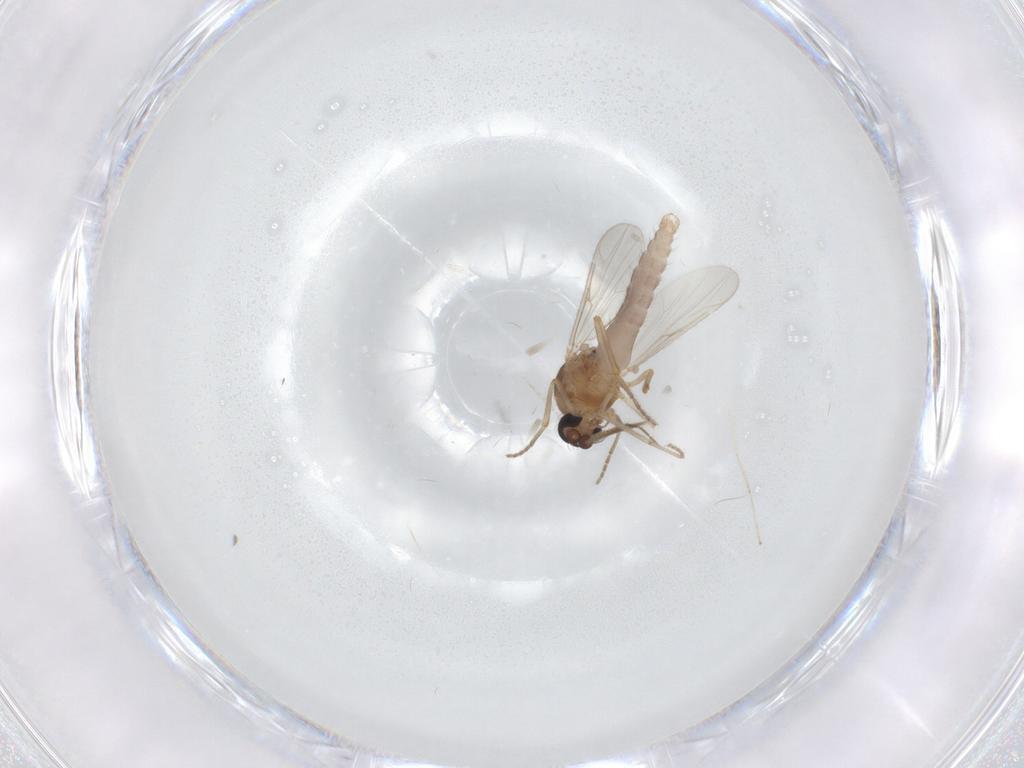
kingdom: Animalia
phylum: Arthropoda
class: Insecta
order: Diptera
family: Ceratopogonidae
